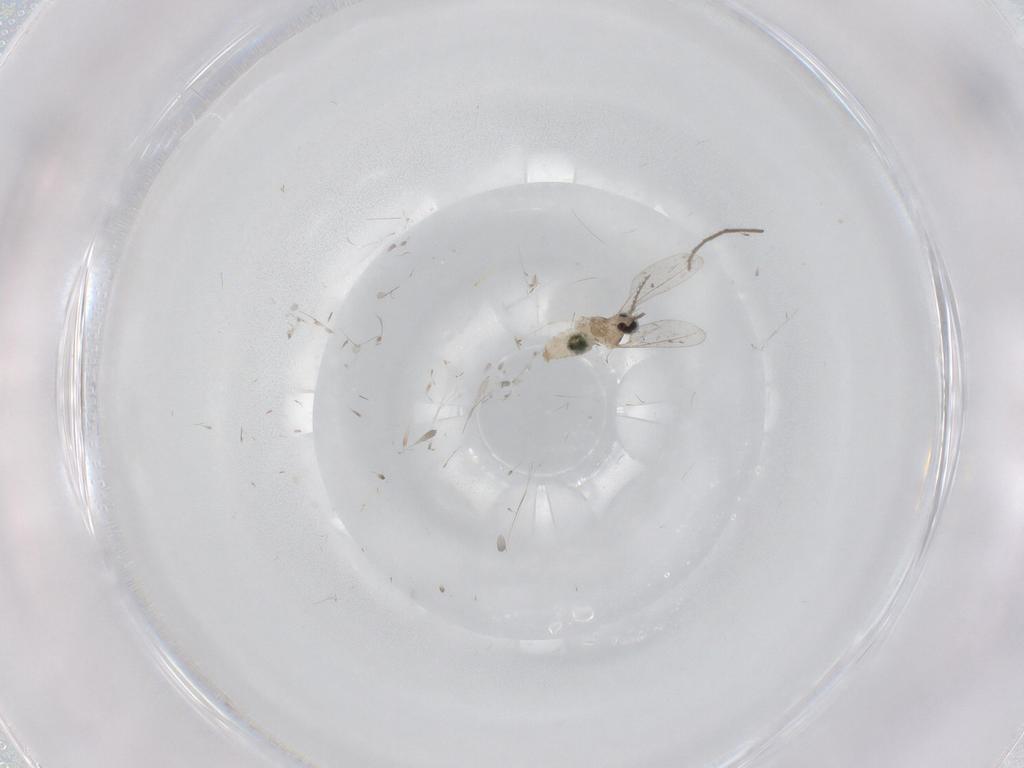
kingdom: Animalia
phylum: Arthropoda
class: Insecta
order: Diptera
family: Cecidomyiidae
